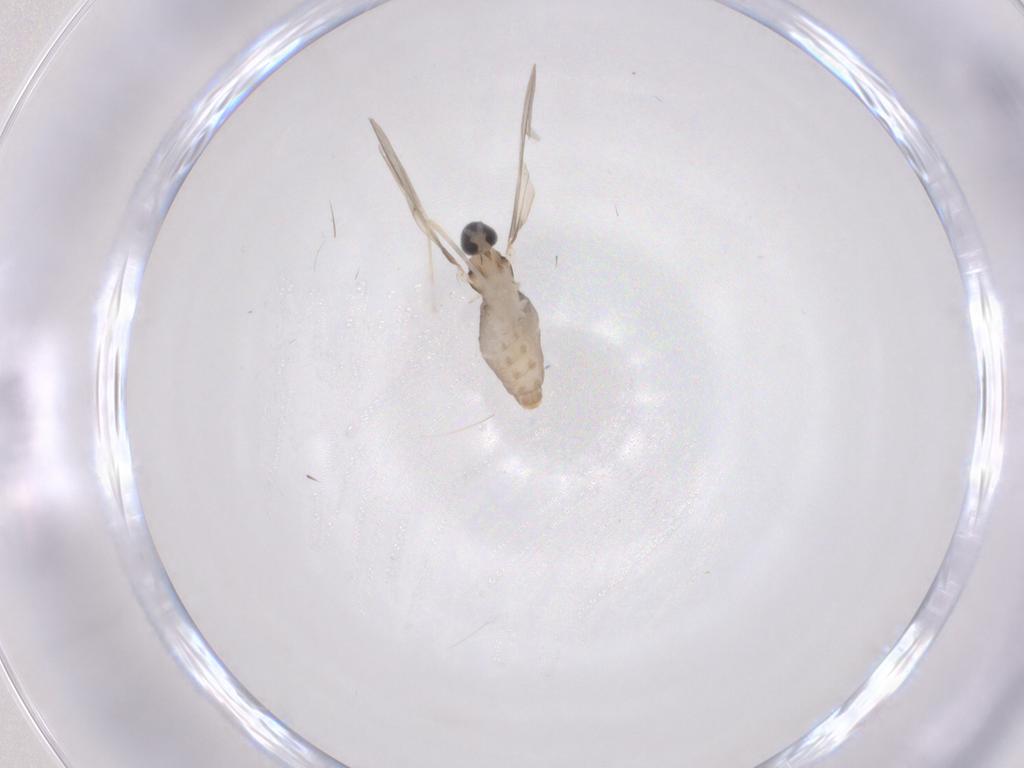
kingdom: Animalia
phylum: Arthropoda
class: Insecta
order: Diptera
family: Cecidomyiidae
